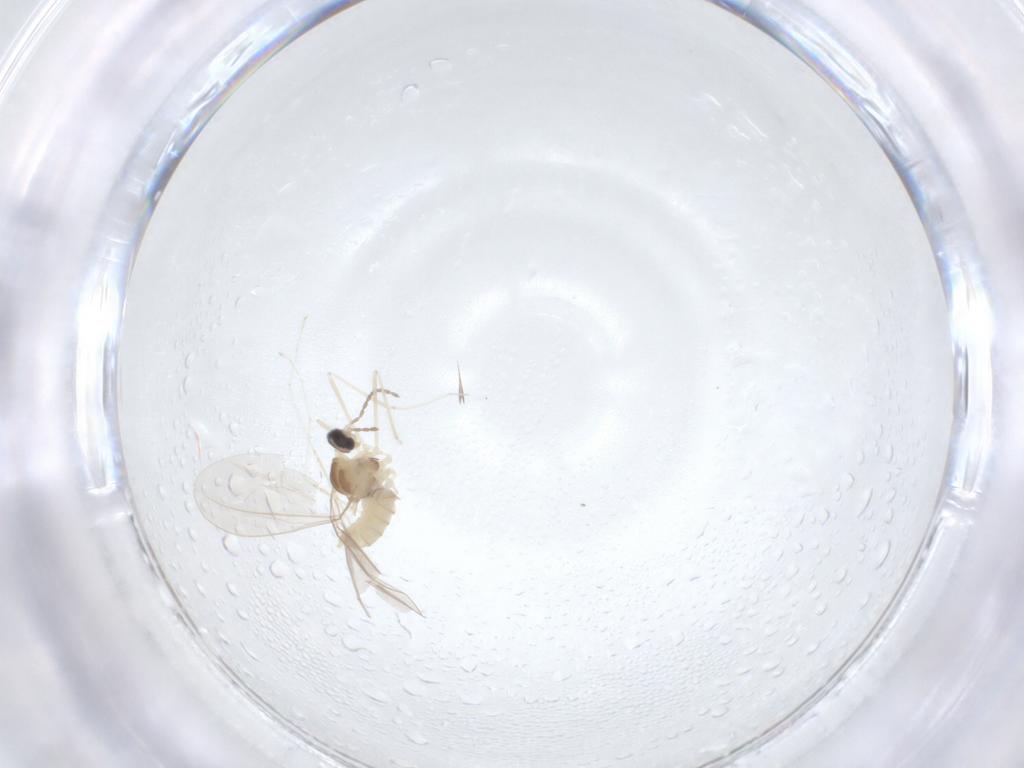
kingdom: Animalia
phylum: Arthropoda
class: Insecta
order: Diptera
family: Cecidomyiidae
